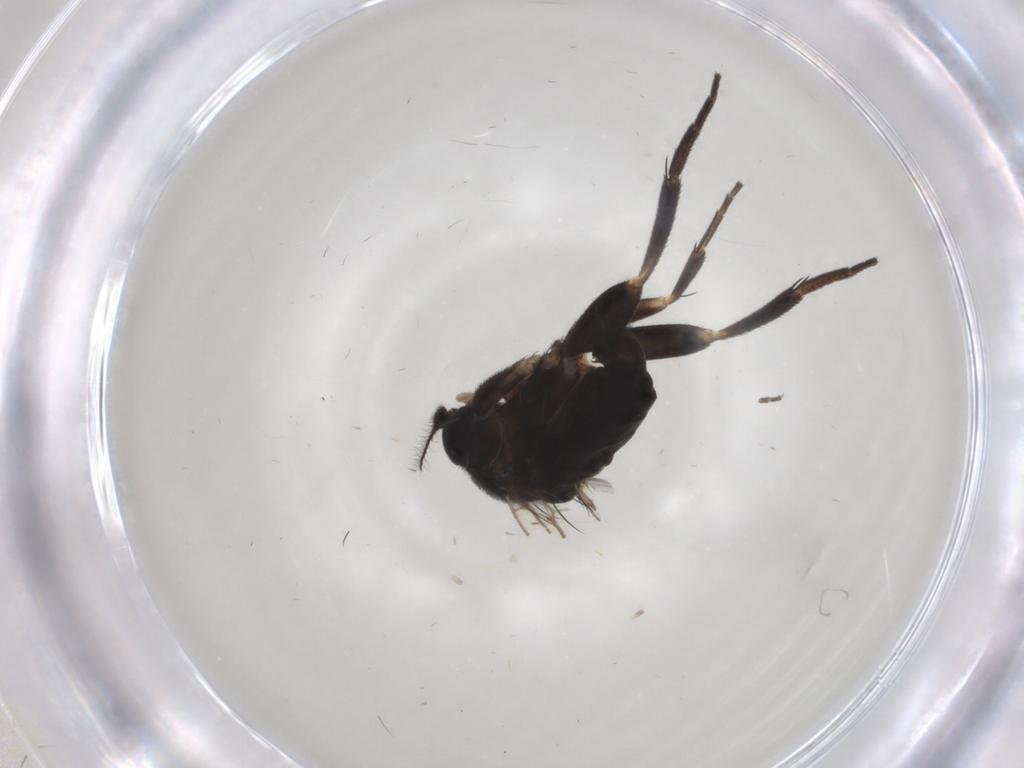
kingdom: Animalia
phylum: Arthropoda
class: Insecta
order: Diptera
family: Phoridae
